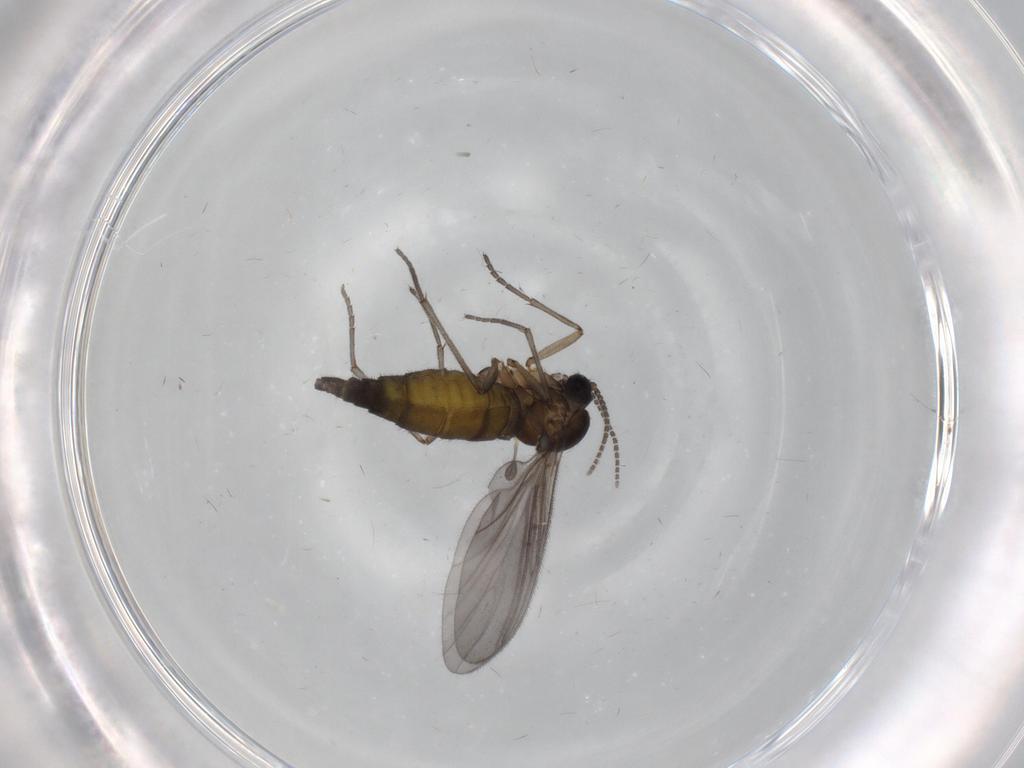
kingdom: Animalia
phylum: Arthropoda
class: Insecta
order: Diptera
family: Sciaridae
